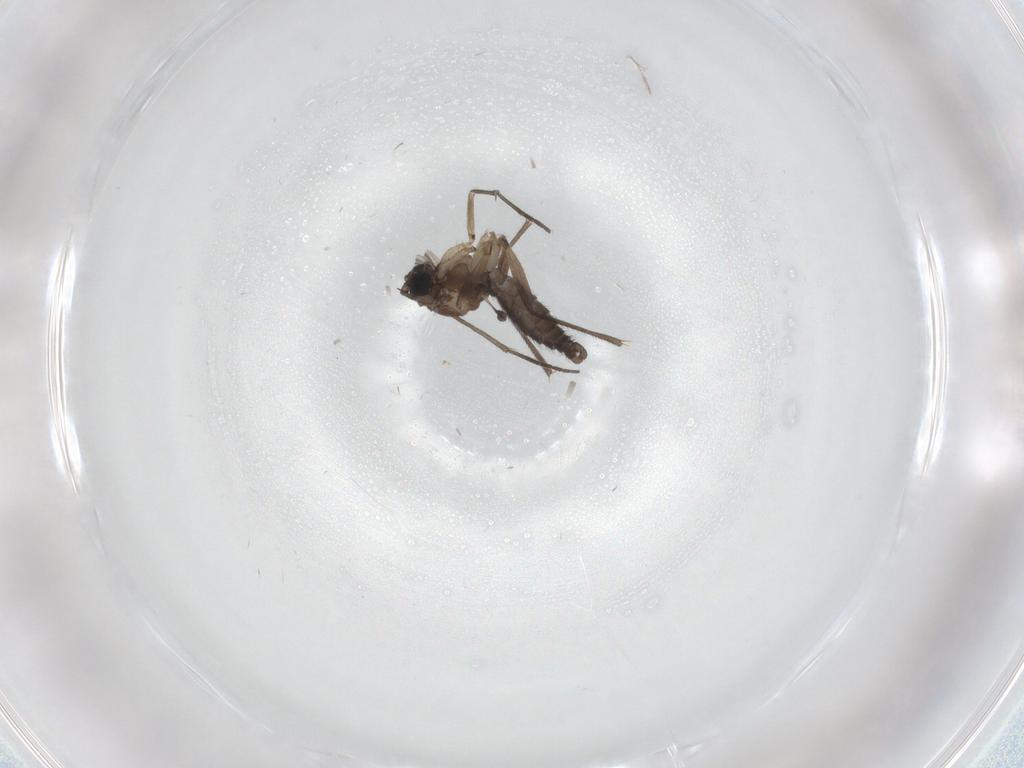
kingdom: Animalia
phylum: Arthropoda
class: Insecta
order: Diptera
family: Sciaridae
